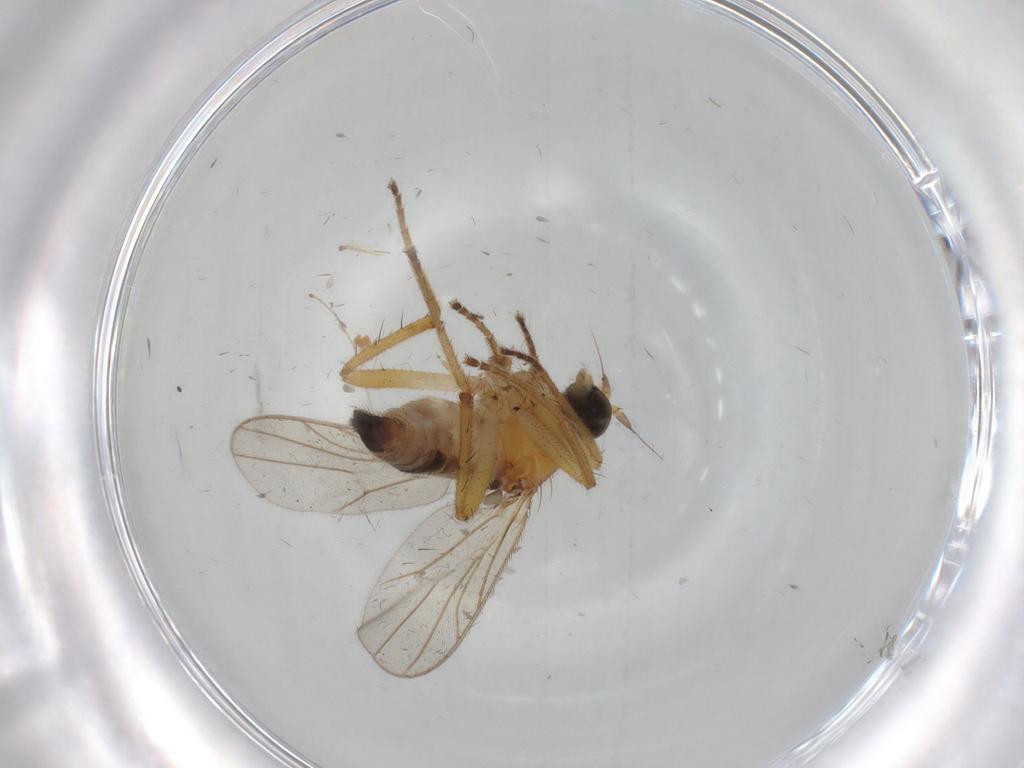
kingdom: Animalia
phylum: Arthropoda
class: Insecta
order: Diptera
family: Hybotidae
